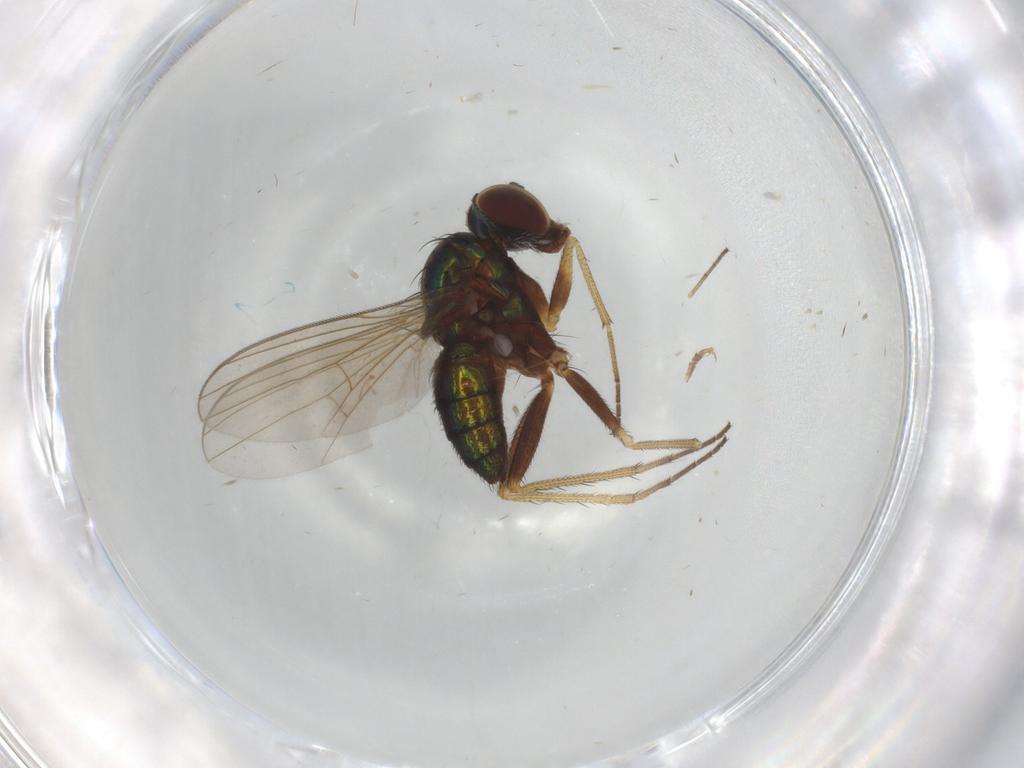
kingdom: Animalia
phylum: Arthropoda
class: Insecta
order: Diptera
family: Dolichopodidae
